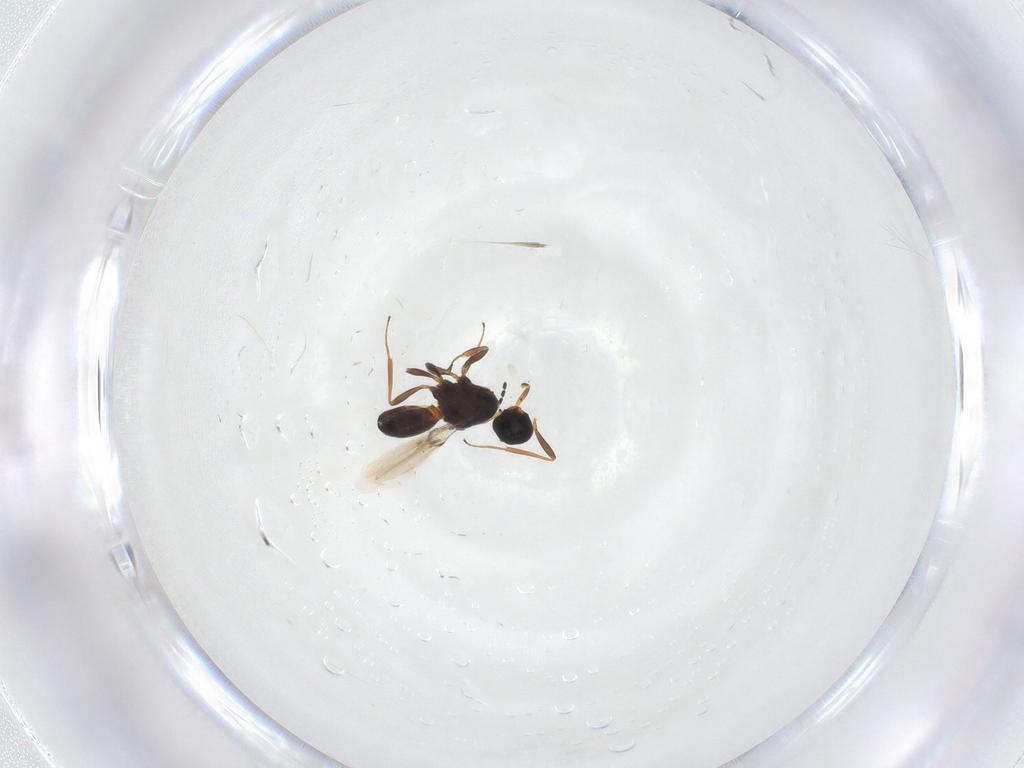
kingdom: Animalia
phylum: Arthropoda
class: Insecta
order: Hymenoptera
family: Scelionidae
